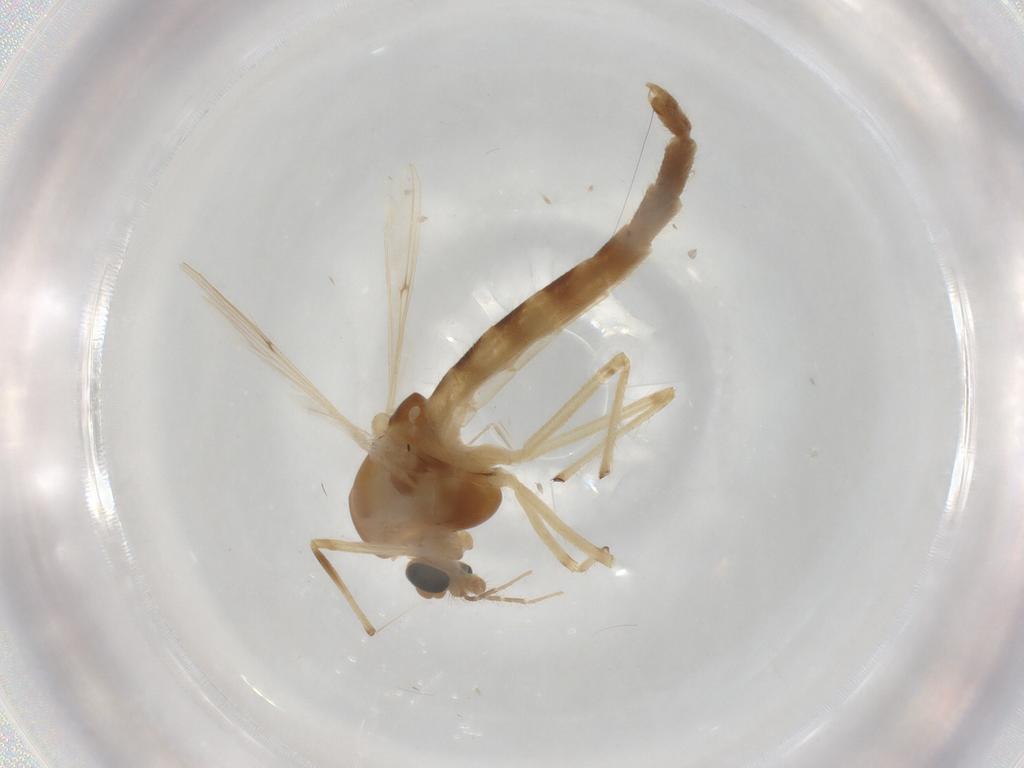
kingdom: Animalia
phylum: Arthropoda
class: Insecta
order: Diptera
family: Chironomidae
